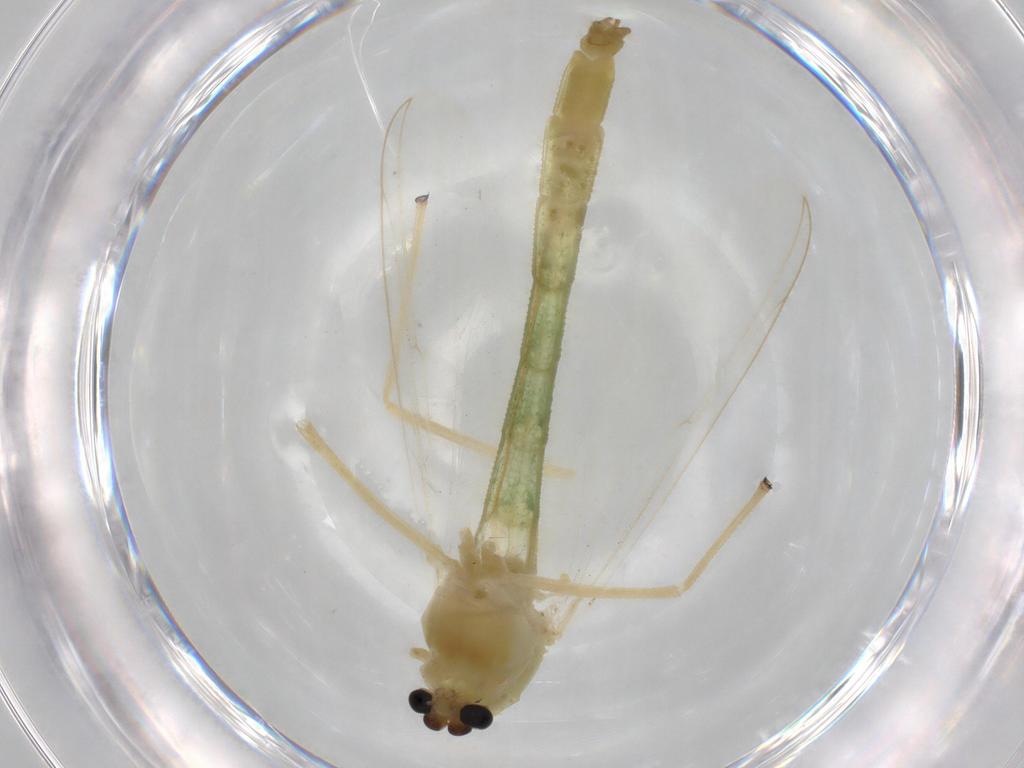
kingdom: Animalia
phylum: Arthropoda
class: Insecta
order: Diptera
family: Chironomidae
